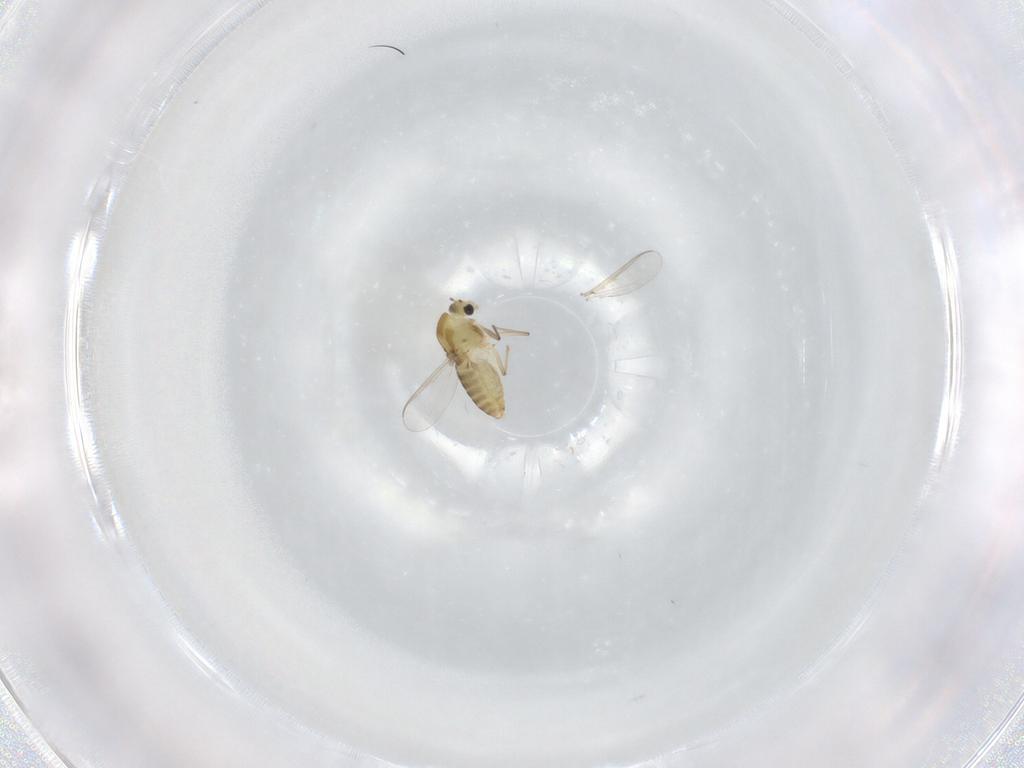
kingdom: Animalia
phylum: Arthropoda
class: Insecta
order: Diptera
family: Chironomidae
